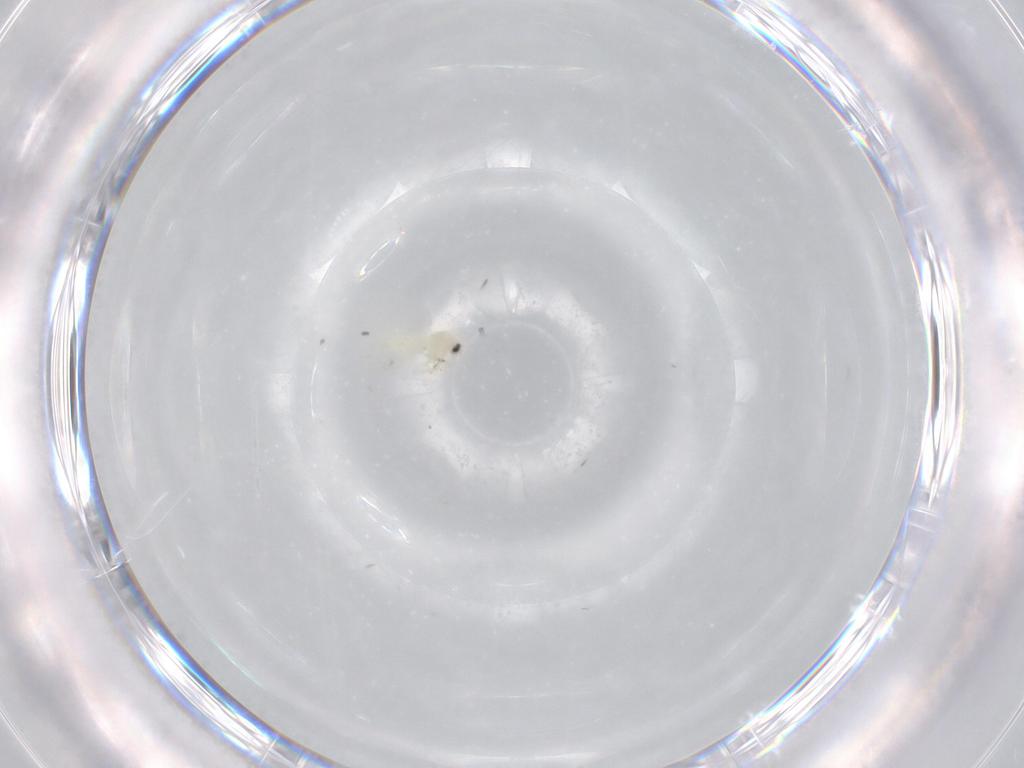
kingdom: Animalia
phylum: Arthropoda
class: Insecta
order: Hemiptera
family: Aleyrodidae
